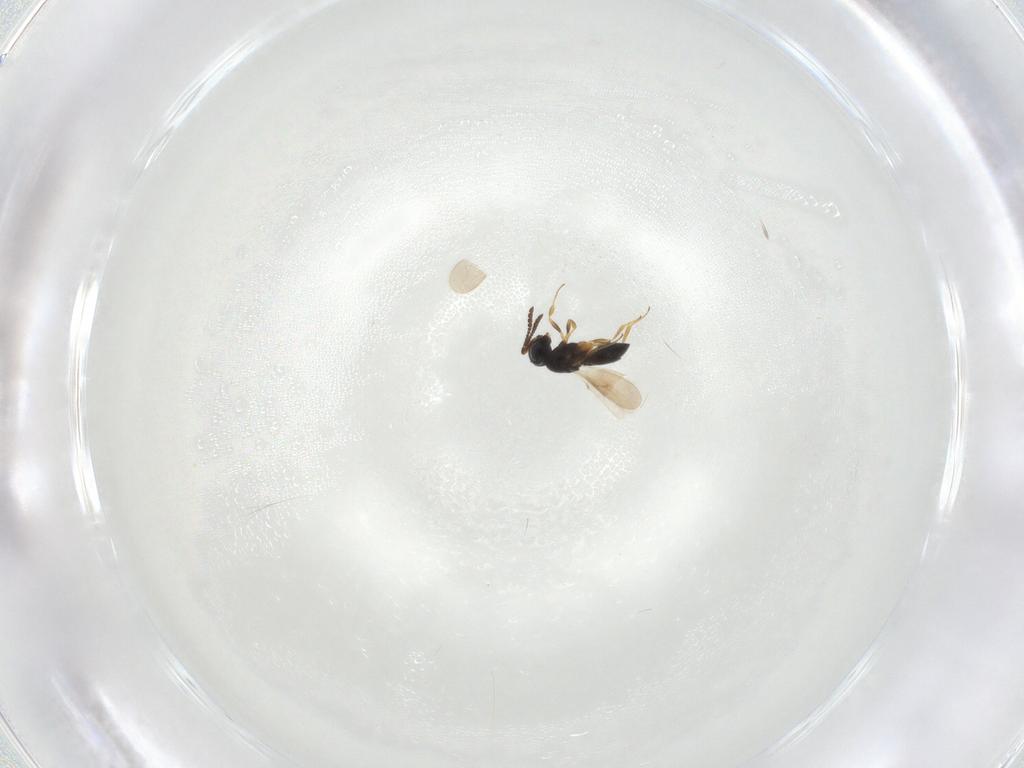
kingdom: Animalia
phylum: Arthropoda
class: Insecta
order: Hymenoptera
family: Scelionidae
